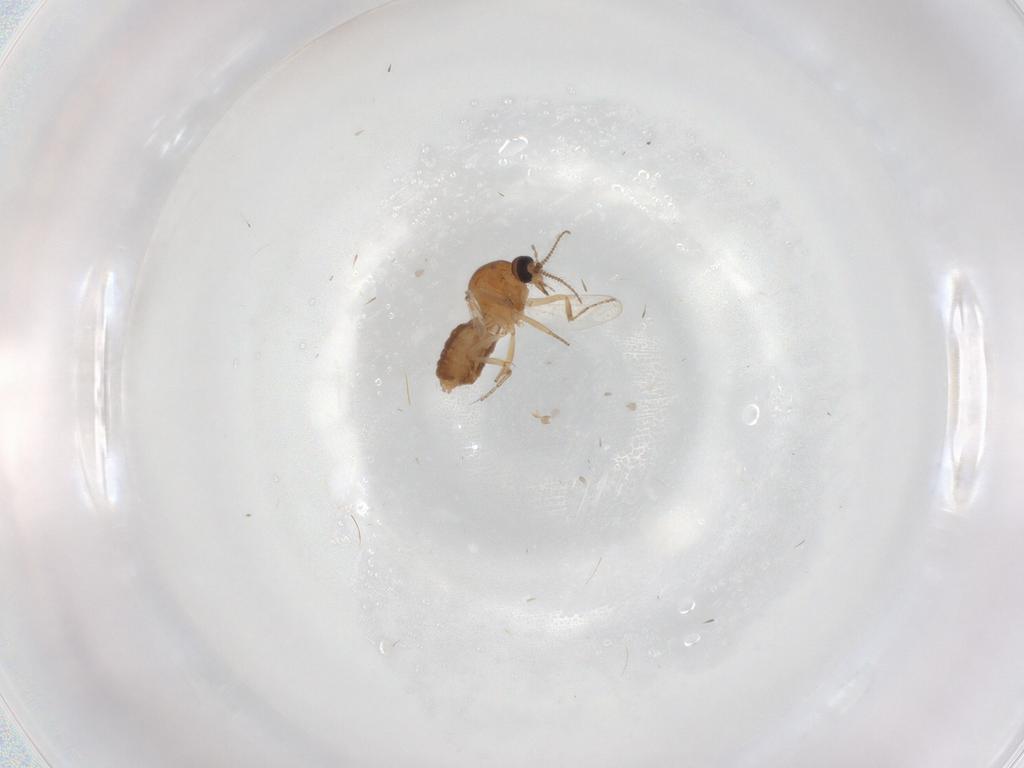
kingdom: Animalia
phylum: Arthropoda
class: Insecta
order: Diptera
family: Ceratopogonidae
